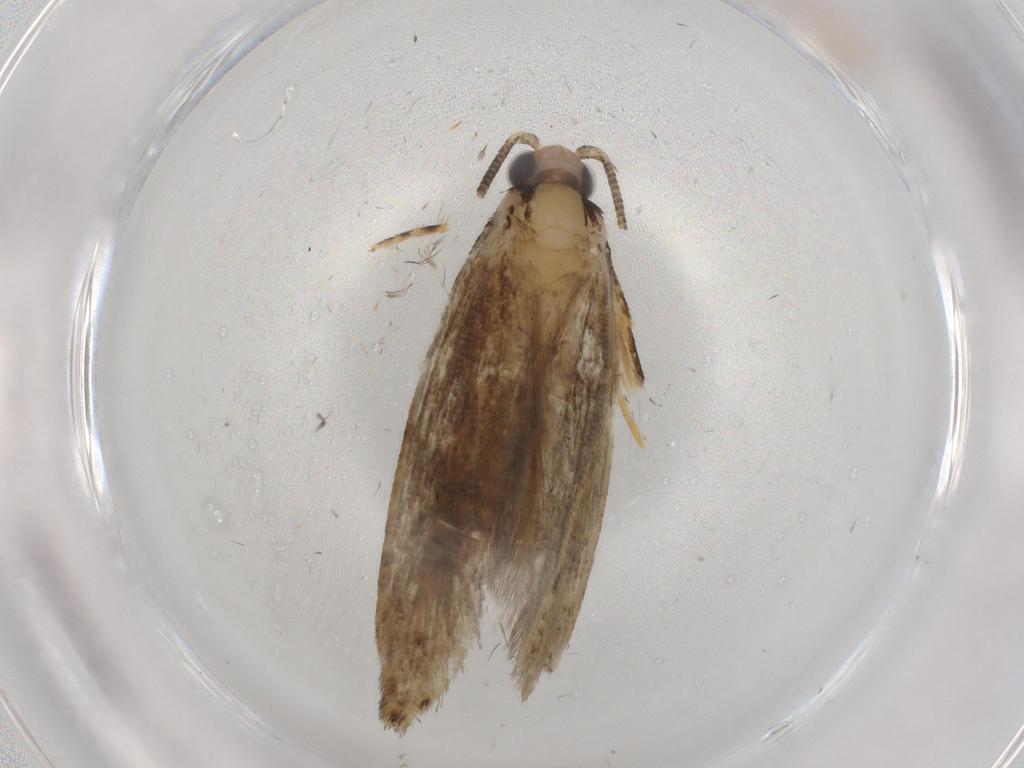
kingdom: Animalia
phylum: Arthropoda
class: Insecta
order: Lepidoptera
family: Tineidae
